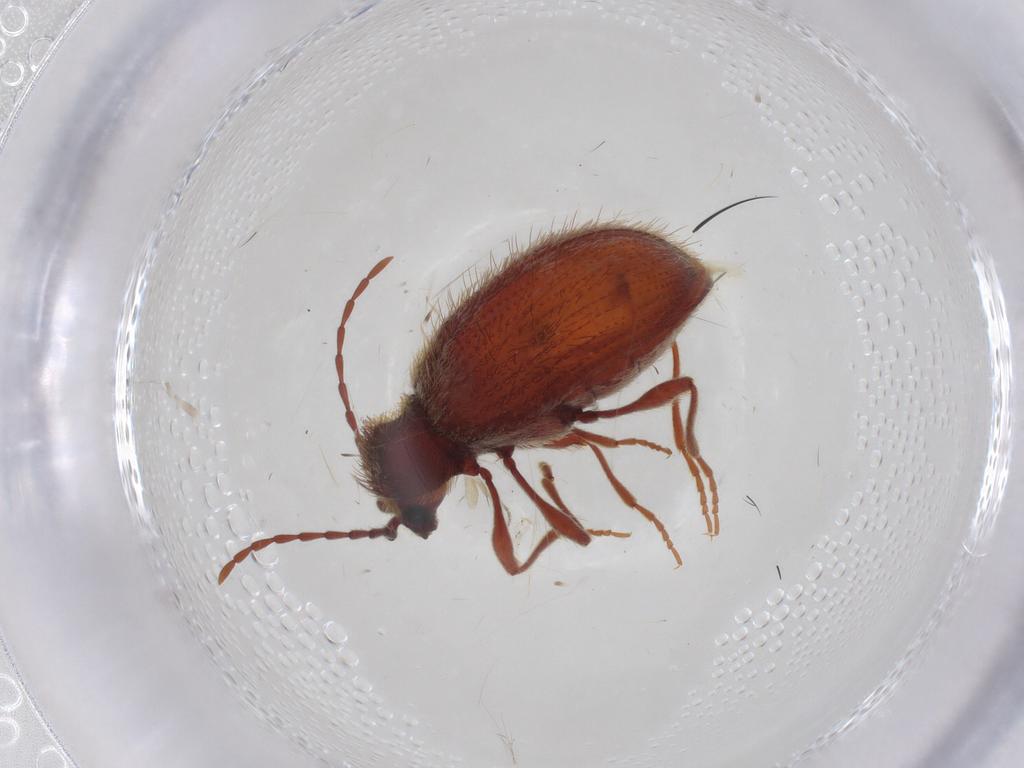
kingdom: Animalia
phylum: Arthropoda
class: Insecta
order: Coleoptera
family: Ptinidae
